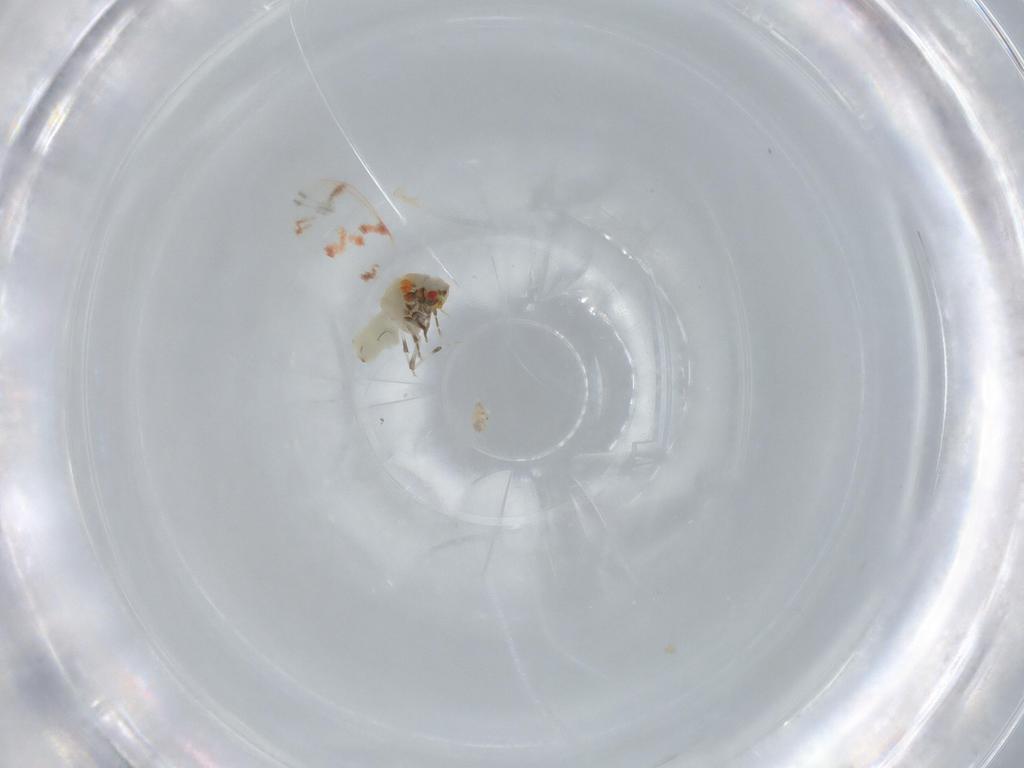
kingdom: Animalia
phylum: Arthropoda
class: Insecta
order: Hemiptera
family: Aleyrodidae
